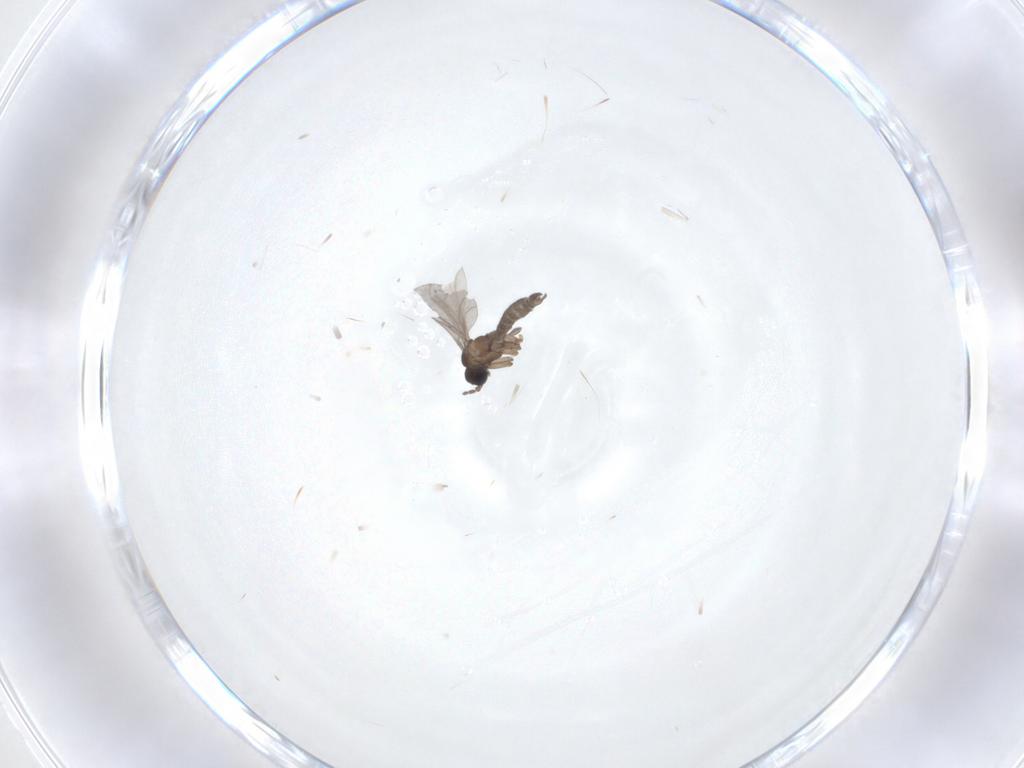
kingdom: Animalia
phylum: Arthropoda
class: Insecta
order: Diptera
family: Sciaridae
